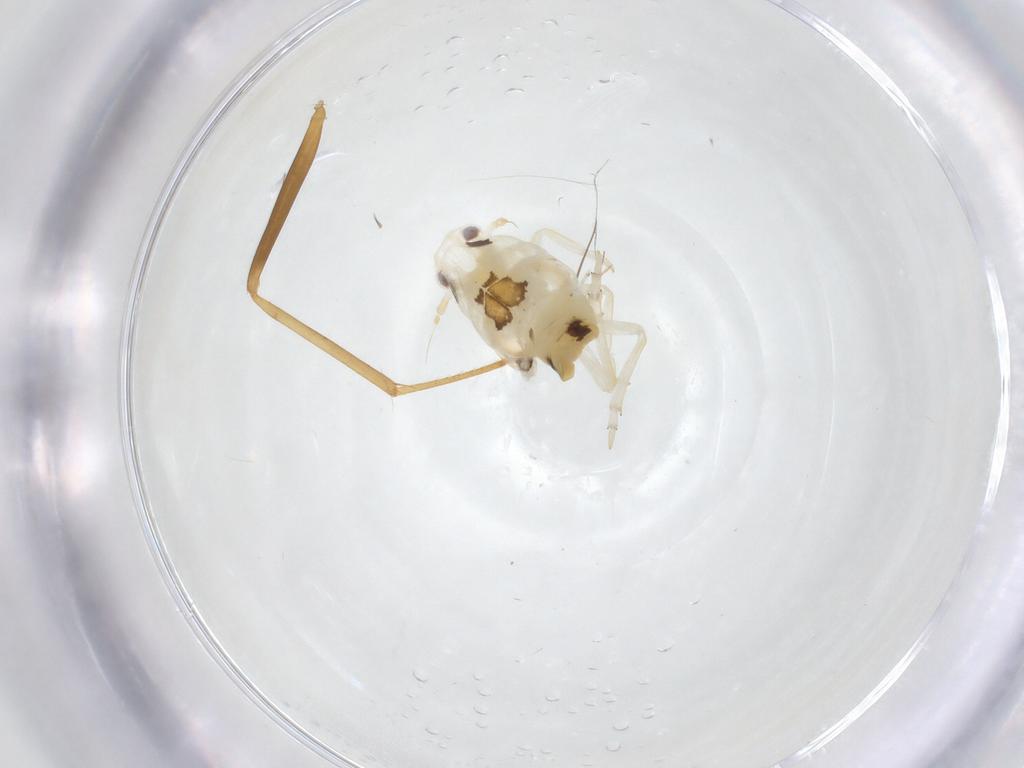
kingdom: Animalia
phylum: Arthropoda
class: Insecta
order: Hemiptera
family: Flatidae
